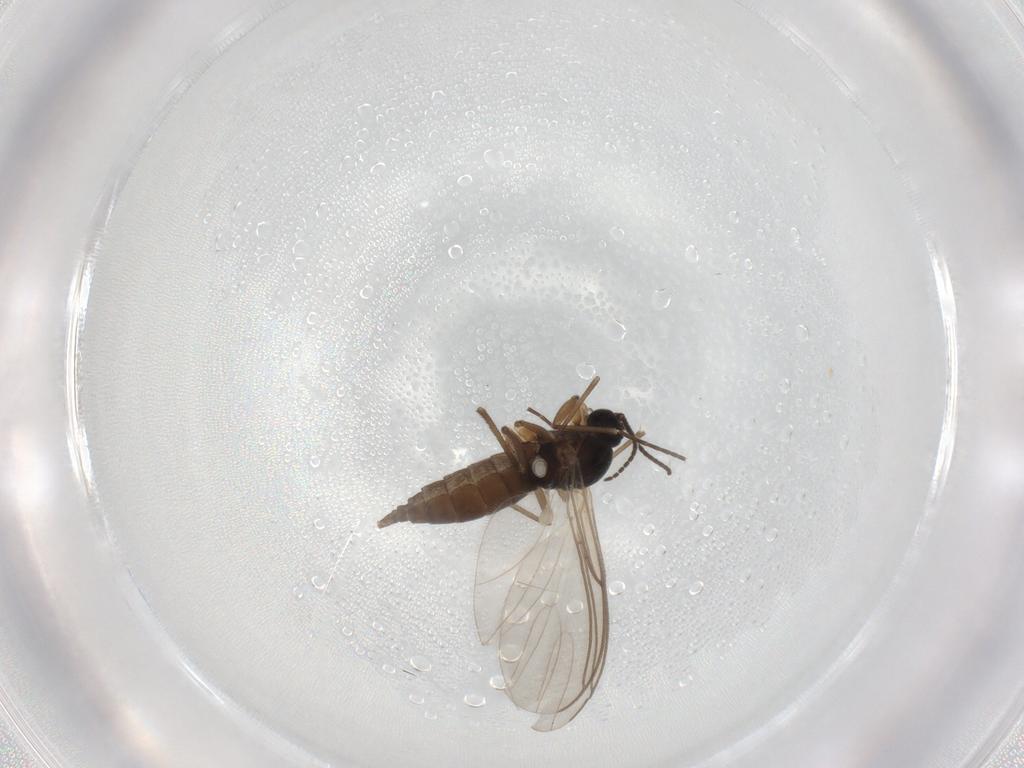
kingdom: Animalia
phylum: Arthropoda
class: Insecta
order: Diptera
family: Sciaridae
